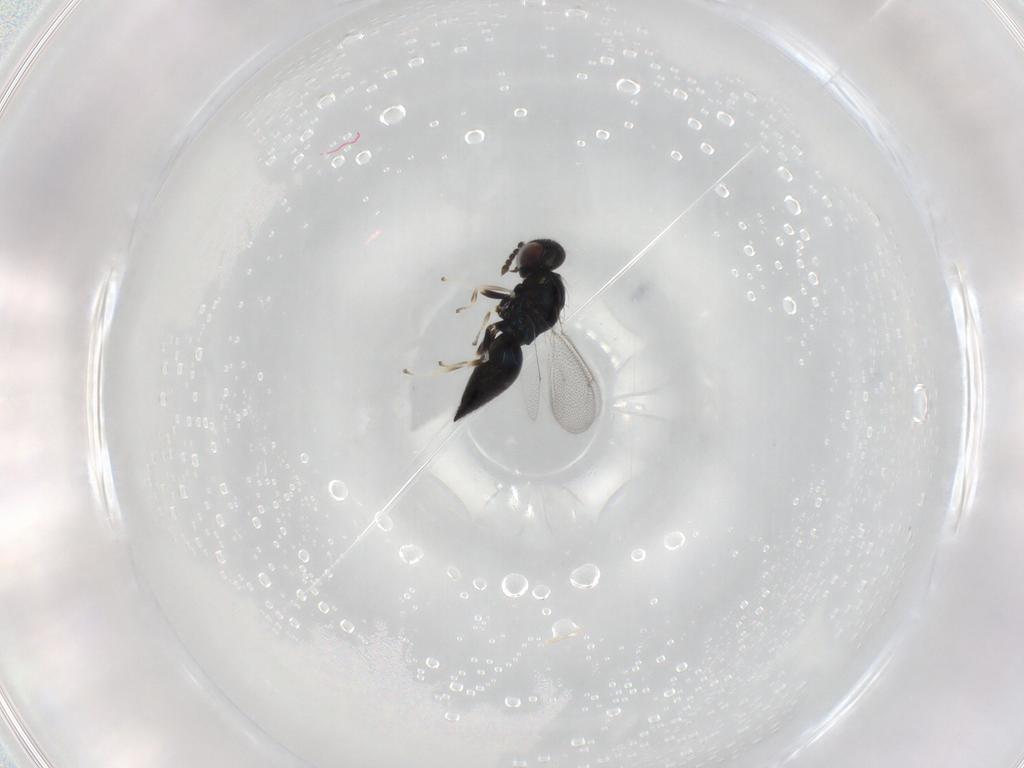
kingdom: Animalia
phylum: Arthropoda
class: Insecta
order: Hymenoptera
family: Eulophidae
